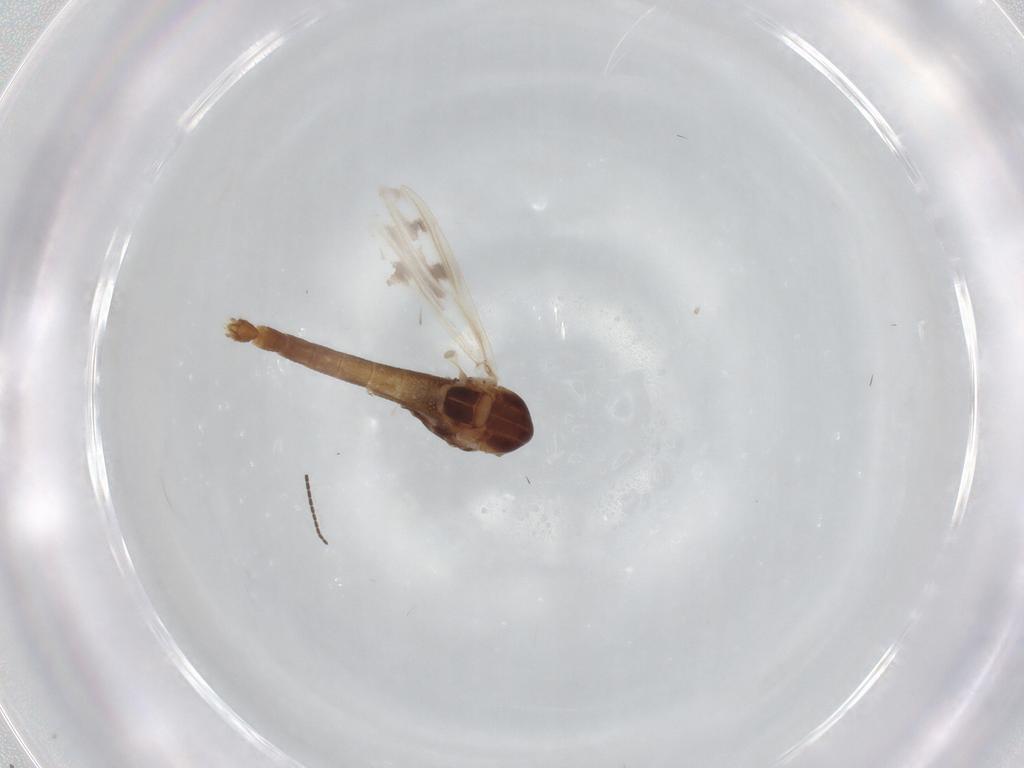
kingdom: Animalia
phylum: Arthropoda
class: Insecta
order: Diptera
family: Chironomidae
